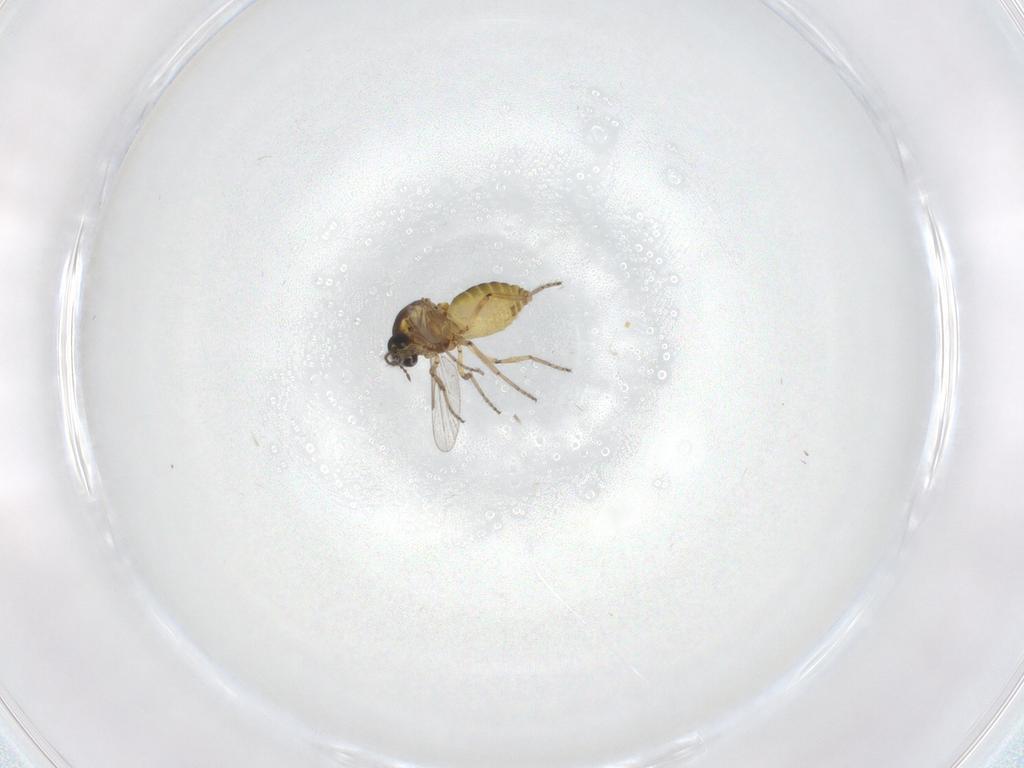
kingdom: Animalia
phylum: Arthropoda
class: Insecta
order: Diptera
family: Ceratopogonidae
